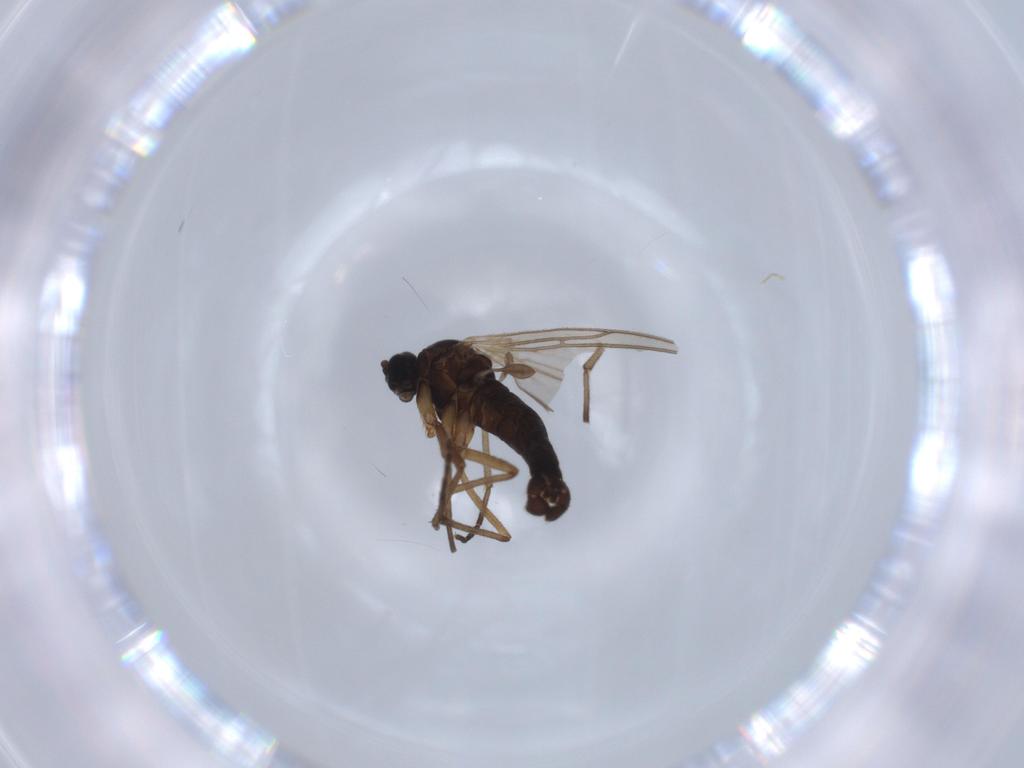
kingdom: Animalia
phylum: Arthropoda
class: Insecta
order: Diptera
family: Sciaridae
